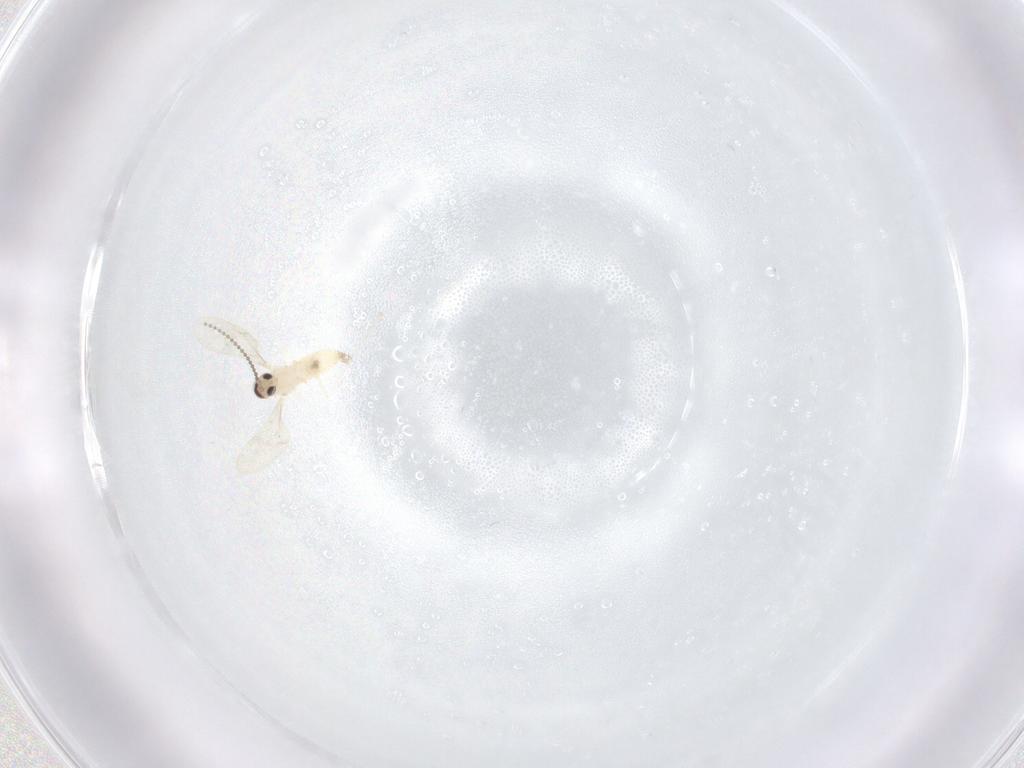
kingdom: Animalia
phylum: Arthropoda
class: Insecta
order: Diptera
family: Cecidomyiidae
